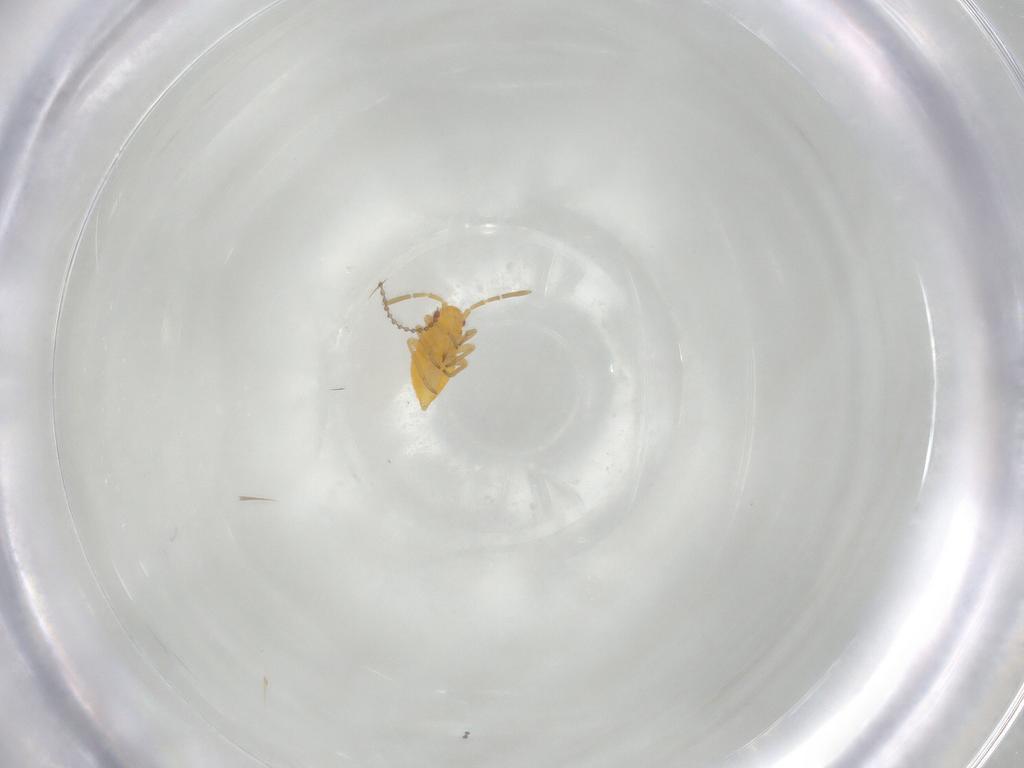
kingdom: Animalia
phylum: Arthropoda
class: Insecta
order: Hemiptera
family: Miridae
